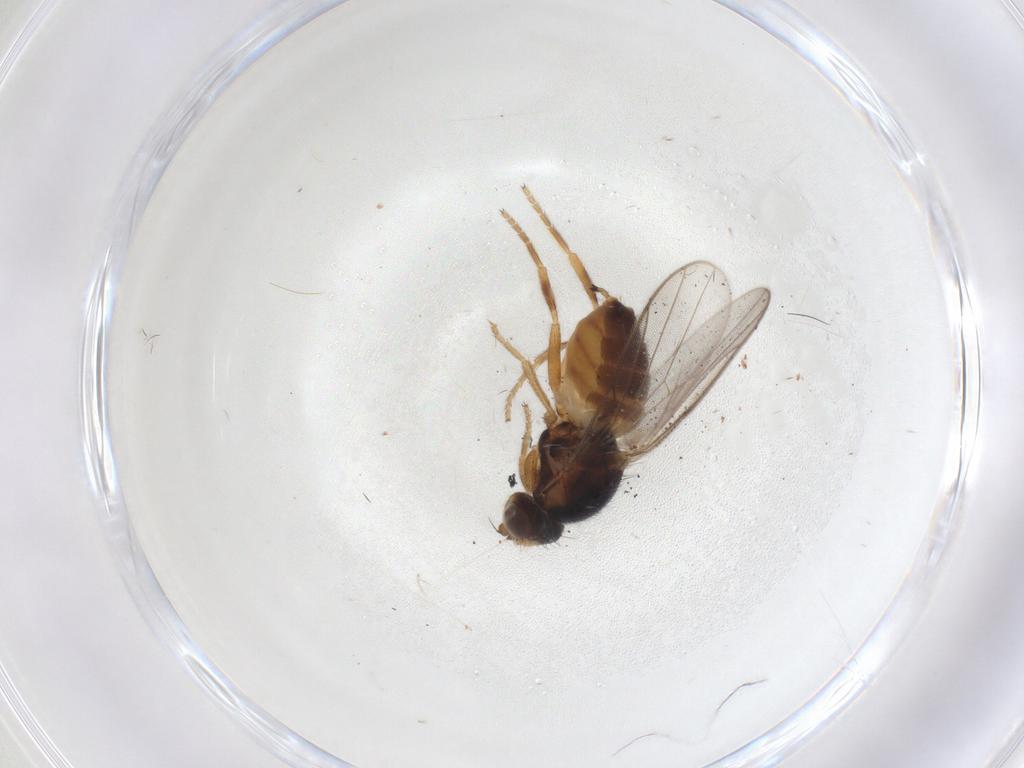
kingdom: Animalia
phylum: Arthropoda
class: Insecta
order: Diptera
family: Chloropidae
